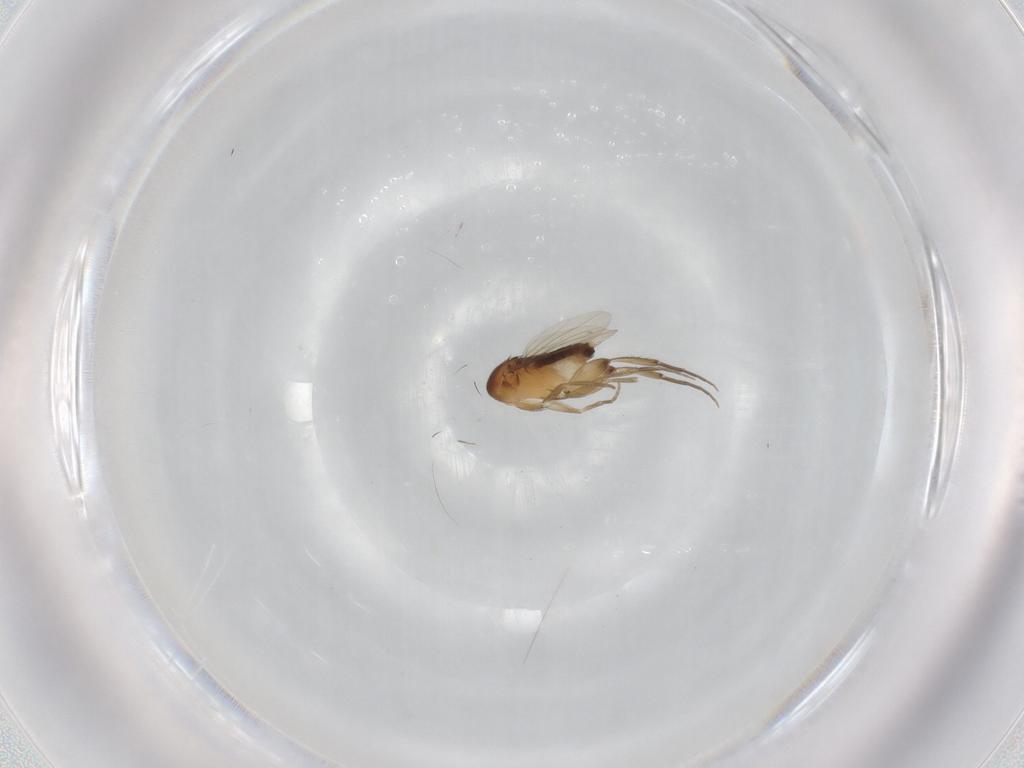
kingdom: Animalia
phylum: Arthropoda
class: Insecta
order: Diptera
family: Phoridae
